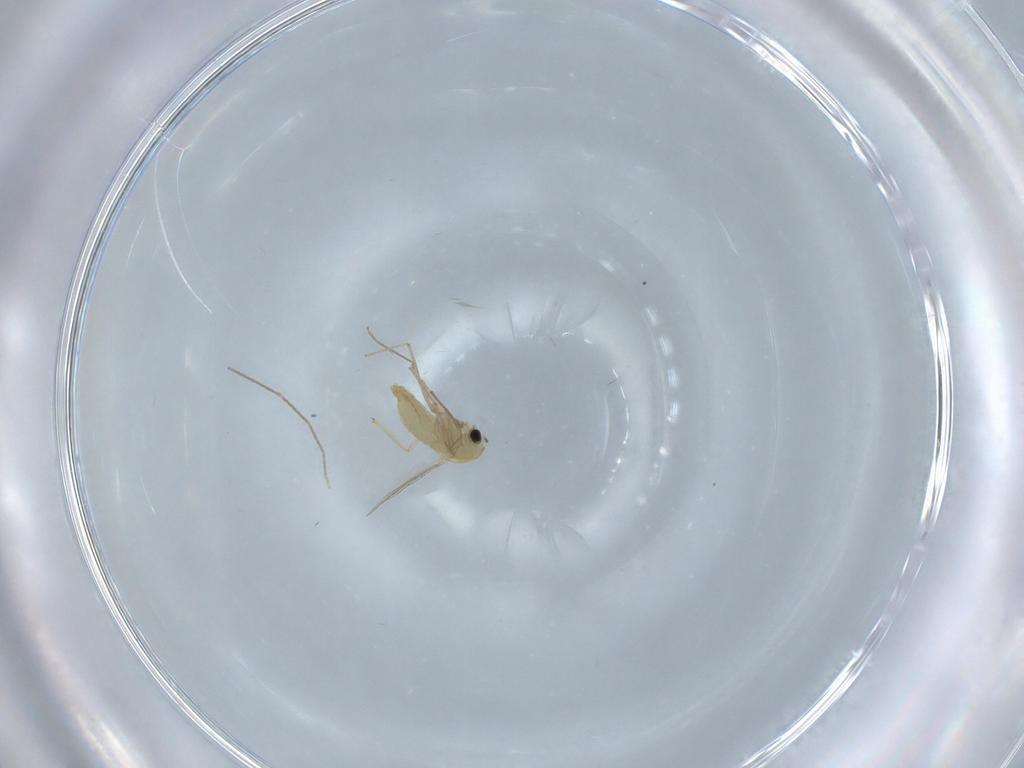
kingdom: Animalia
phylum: Arthropoda
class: Insecta
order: Diptera
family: Chironomidae
